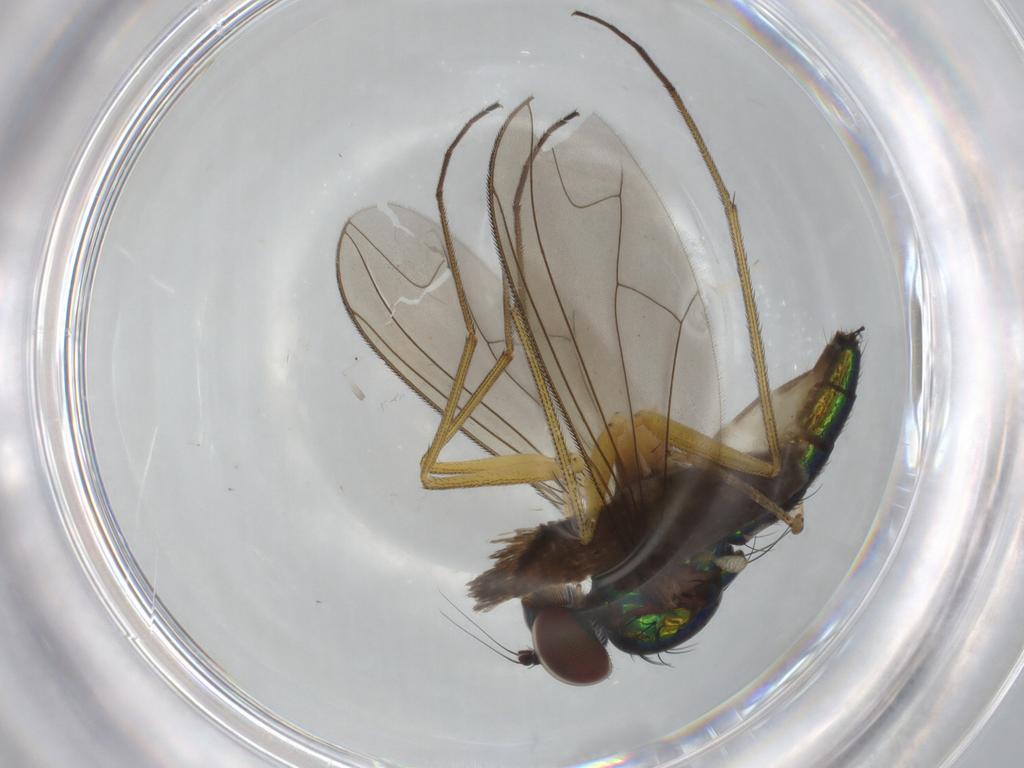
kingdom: Animalia
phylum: Arthropoda
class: Insecta
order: Diptera
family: Dolichopodidae
